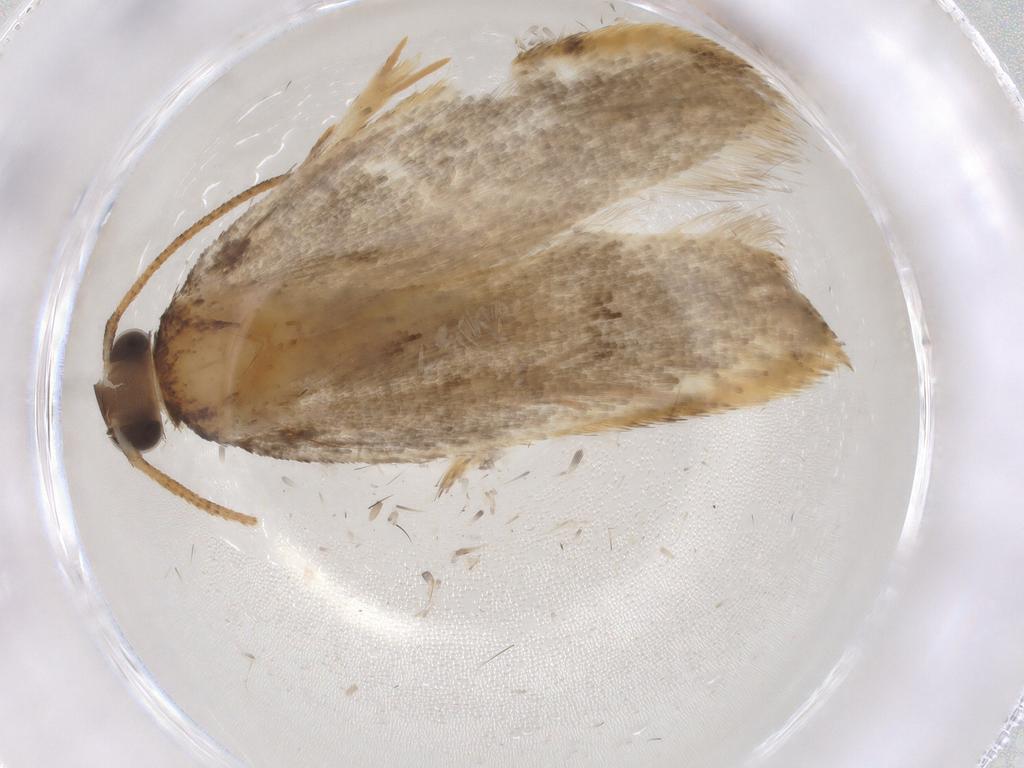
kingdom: Animalia
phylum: Arthropoda
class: Insecta
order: Lepidoptera
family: Gelechiidae
